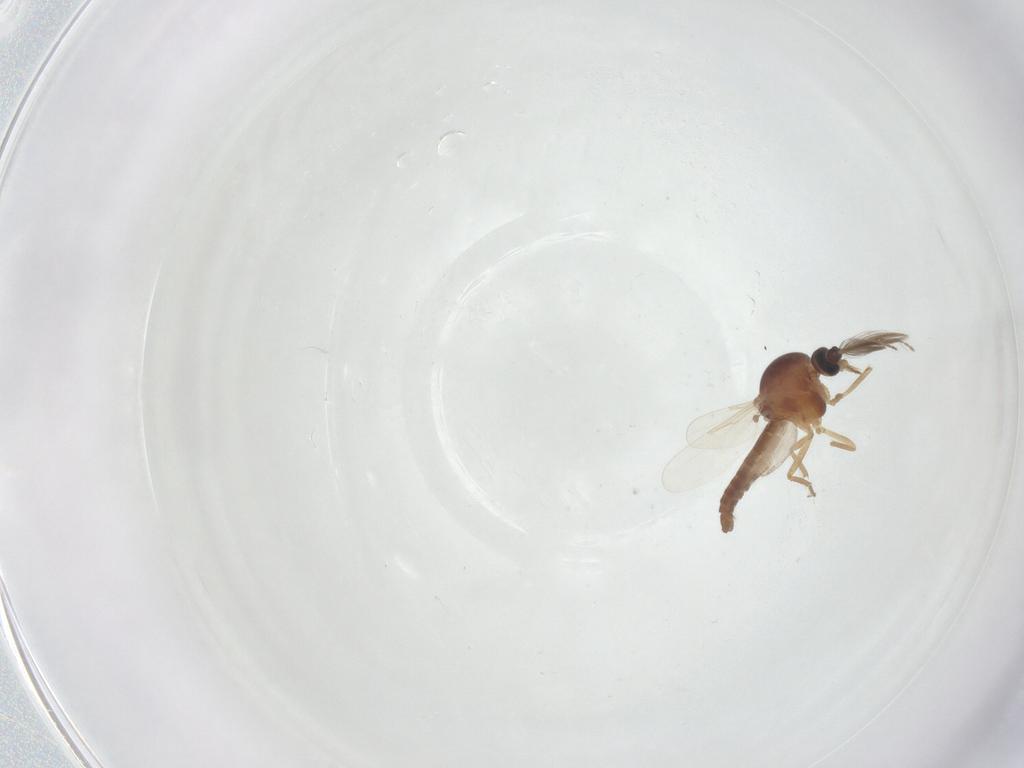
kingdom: Animalia
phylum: Arthropoda
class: Insecta
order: Diptera
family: Ceratopogonidae
